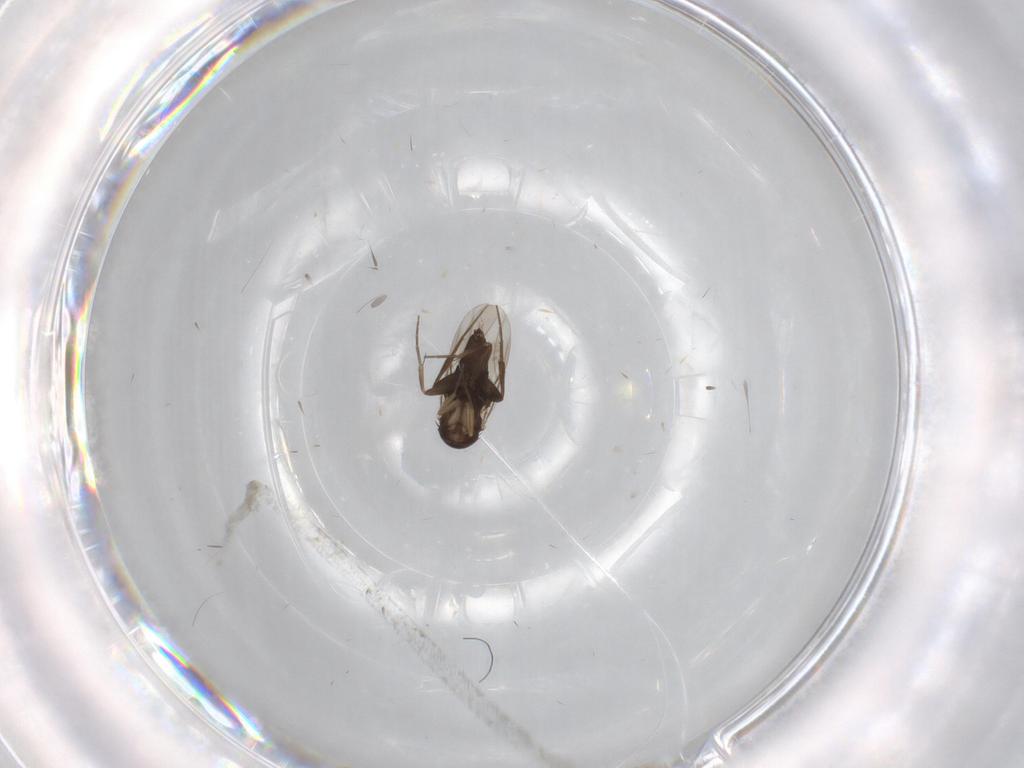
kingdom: Animalia
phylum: Arthropoda
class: Insecta
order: Diptera
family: Phoridae
